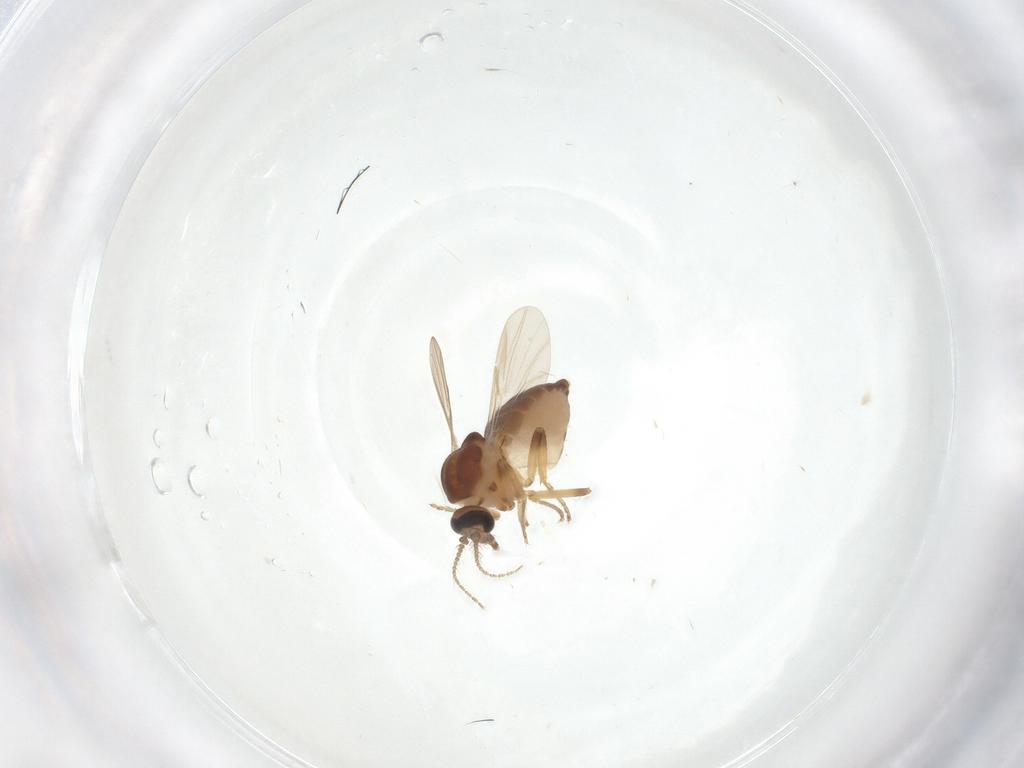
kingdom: Animalia
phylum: Arthropoda
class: Insecta
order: Diptera
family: Ceratopogonidae
